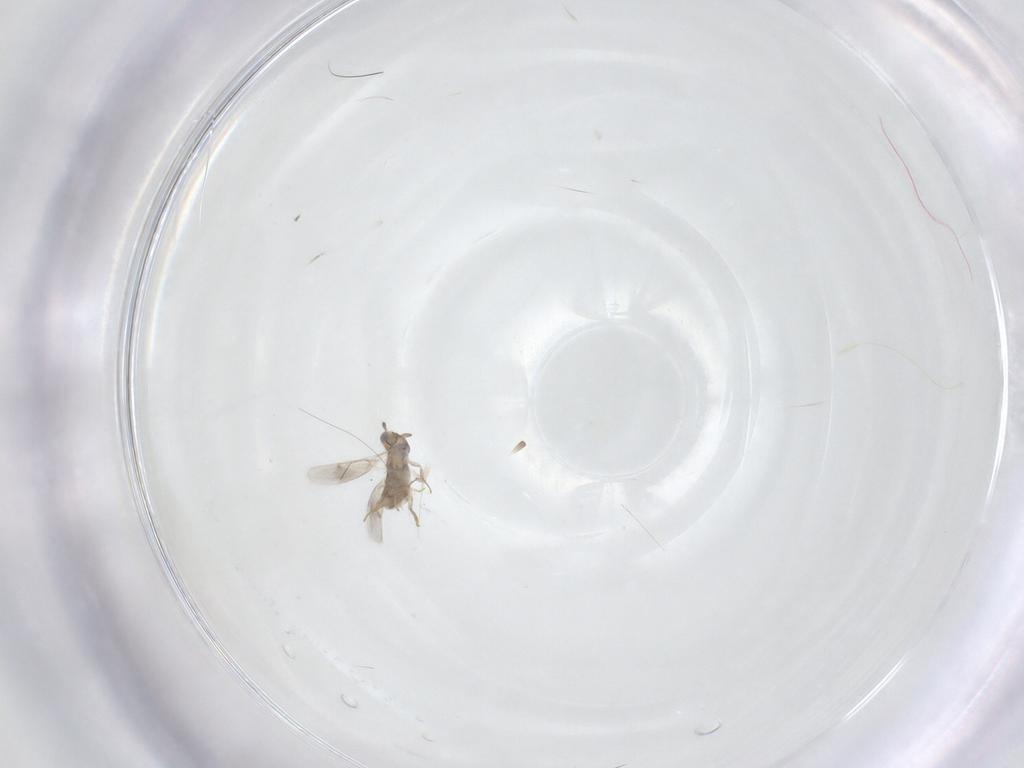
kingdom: Animalia
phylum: Arthropoda
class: Insecta
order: Hymenoptera
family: Aphelinidae
